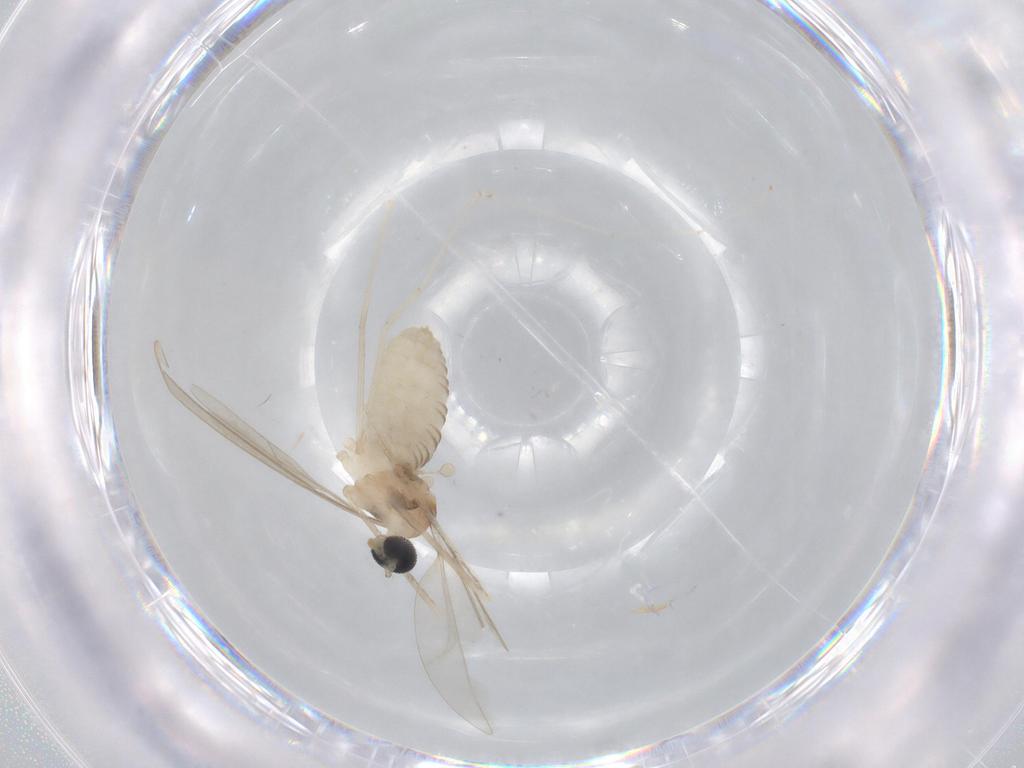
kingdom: Animalia
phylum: Arthropoda
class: Insecta
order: Diptera
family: Cecidomyiidae
